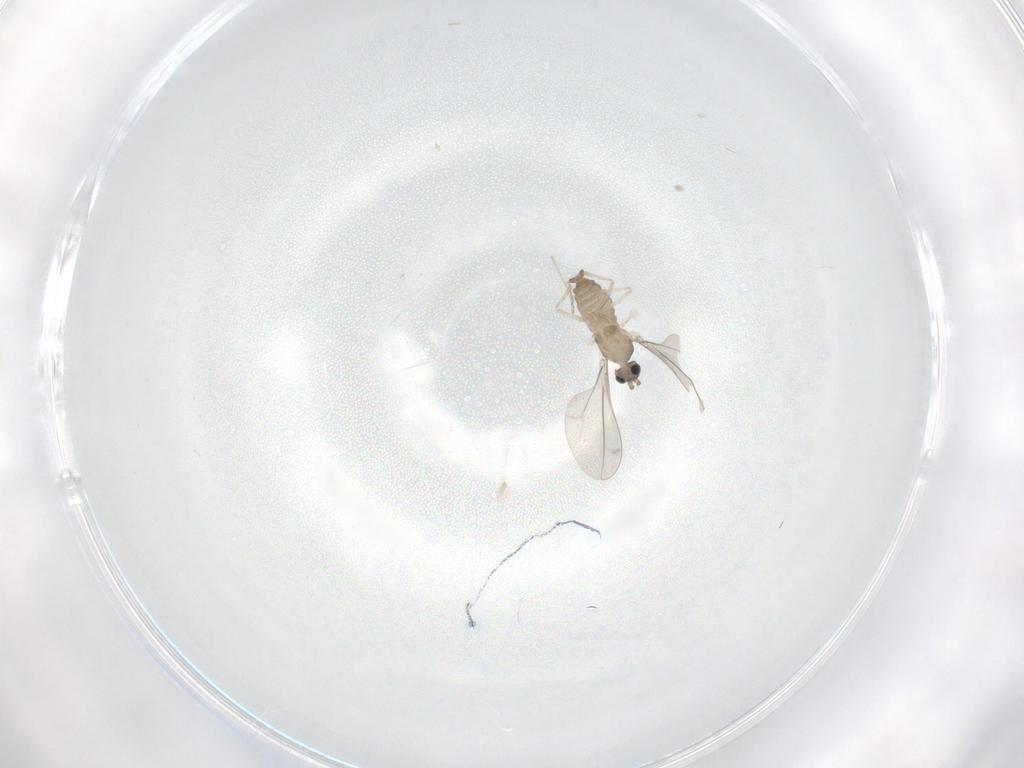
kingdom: Animalia
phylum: Arthropoda
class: Insecta
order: Diptera
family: Cecidomyiidae
